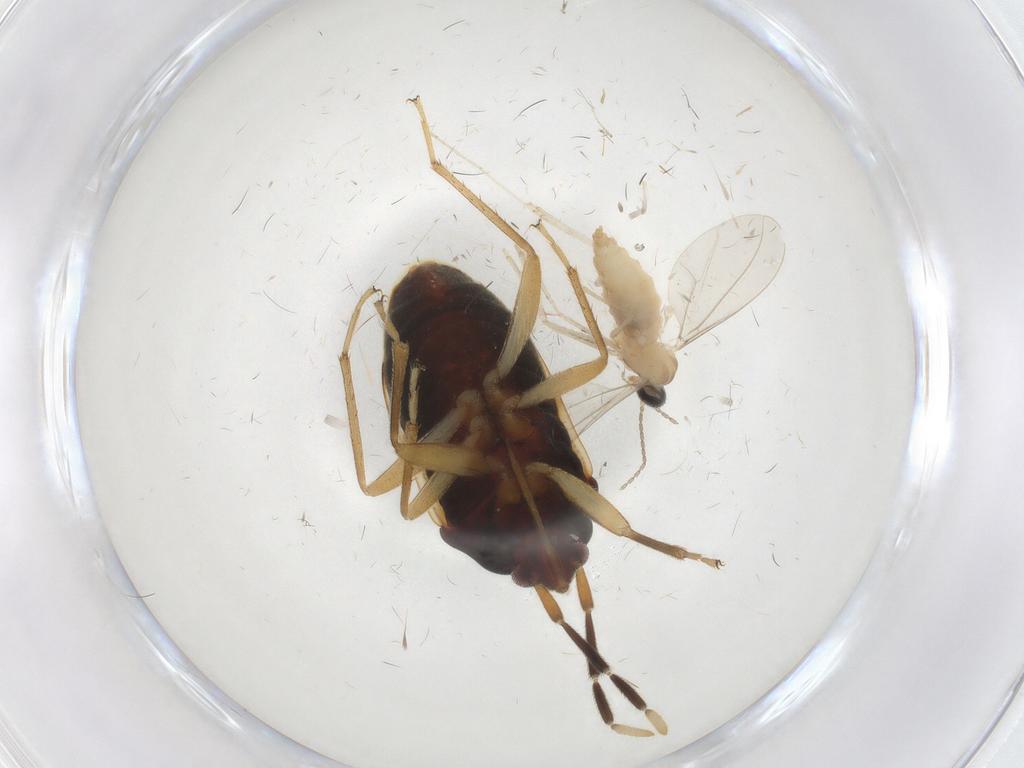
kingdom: Animalia
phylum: Arthropoda
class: Insecta
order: Diptera
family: Cecidomyiidae
